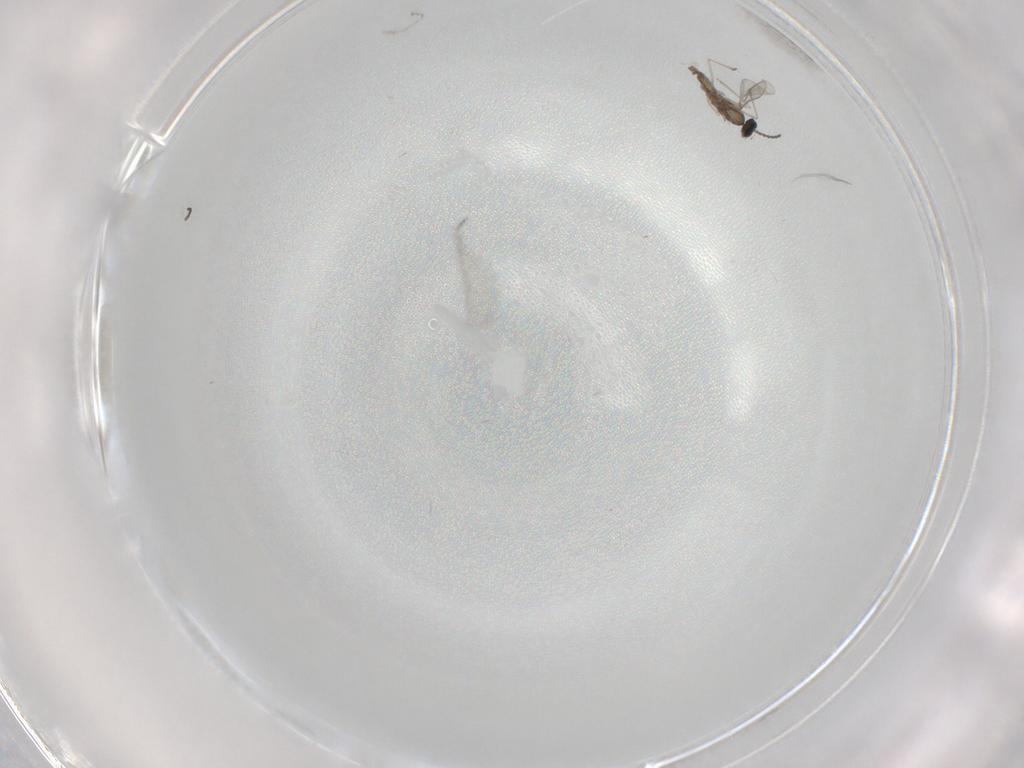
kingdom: Animalia
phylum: Arthropoda
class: Insecta
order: Diptera
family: Cecidomyiidae
